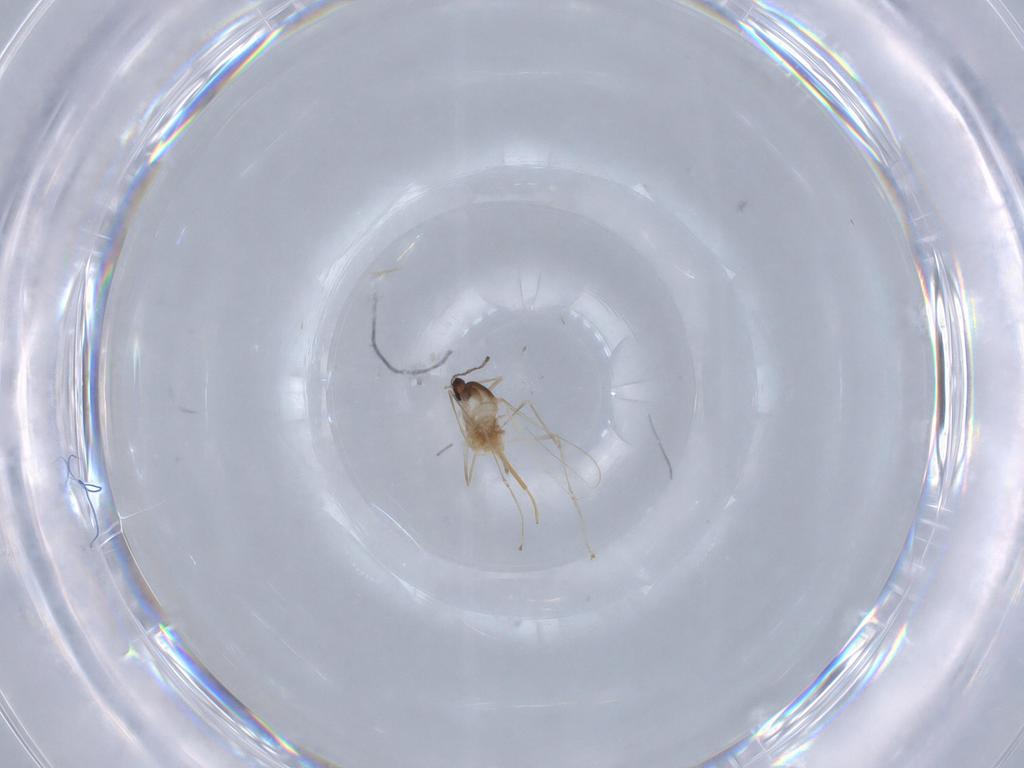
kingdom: Animalia
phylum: Arthropoda
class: Insecta
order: Diptera
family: Cecidomyiidae
